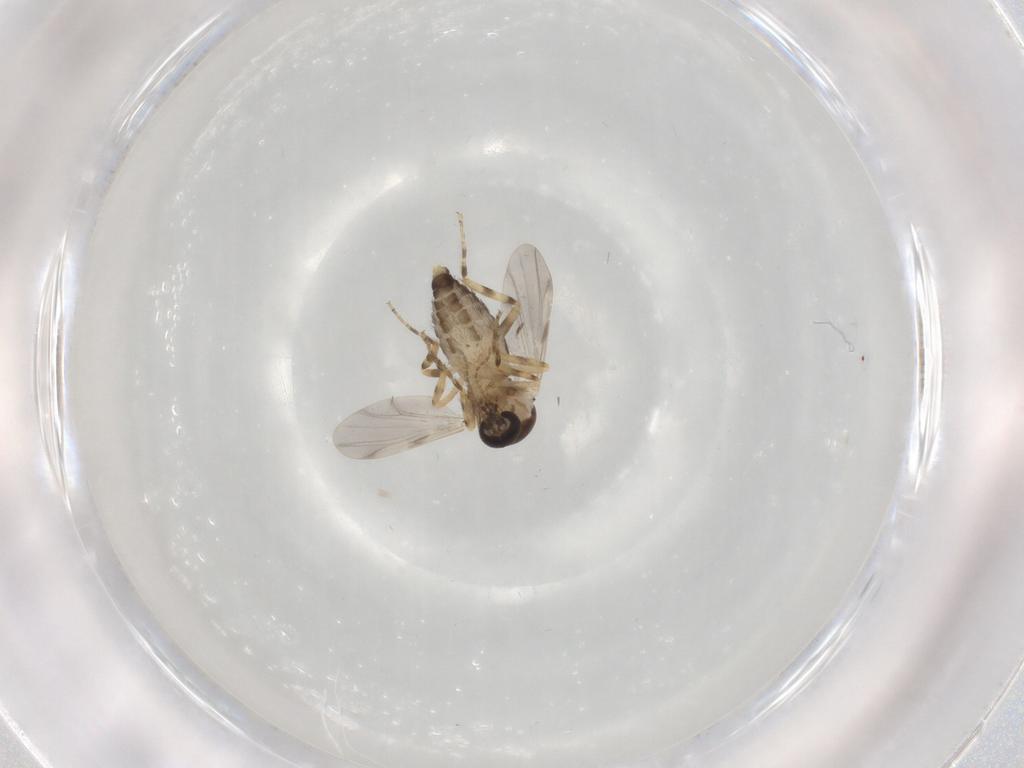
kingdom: Animalia
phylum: Arthropoda
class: Insecta
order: Diptera
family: Ceratopogonidae
